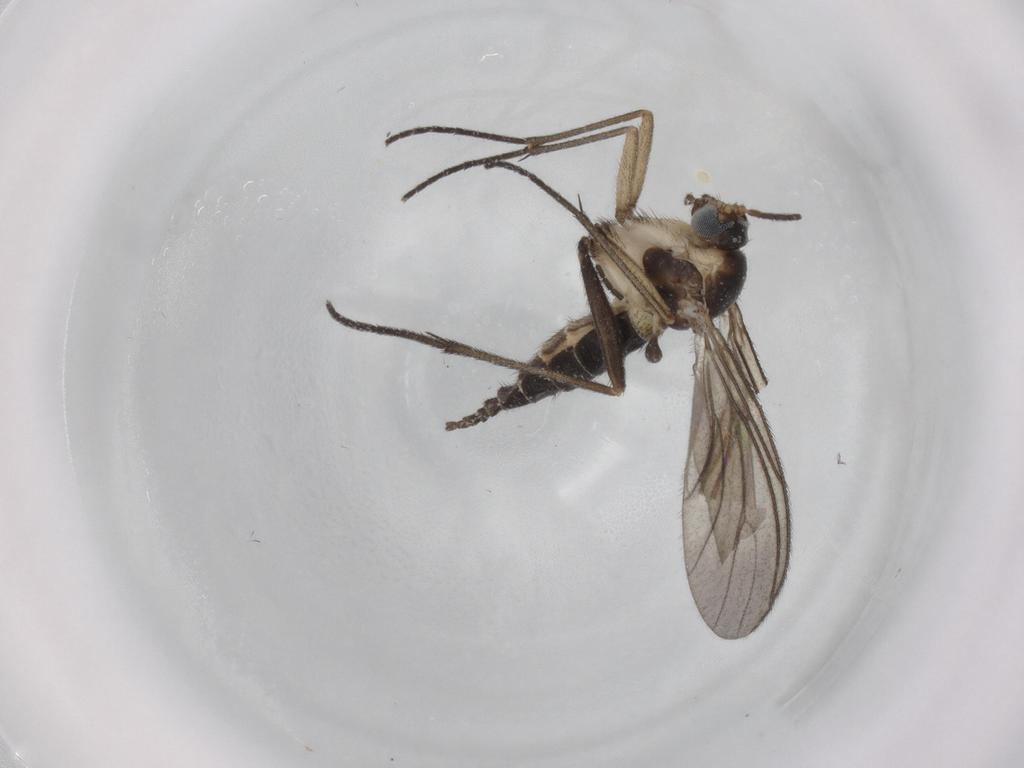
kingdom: Animalia
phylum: Arthropoda
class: Insecta
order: Diptera
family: Sciaridae
